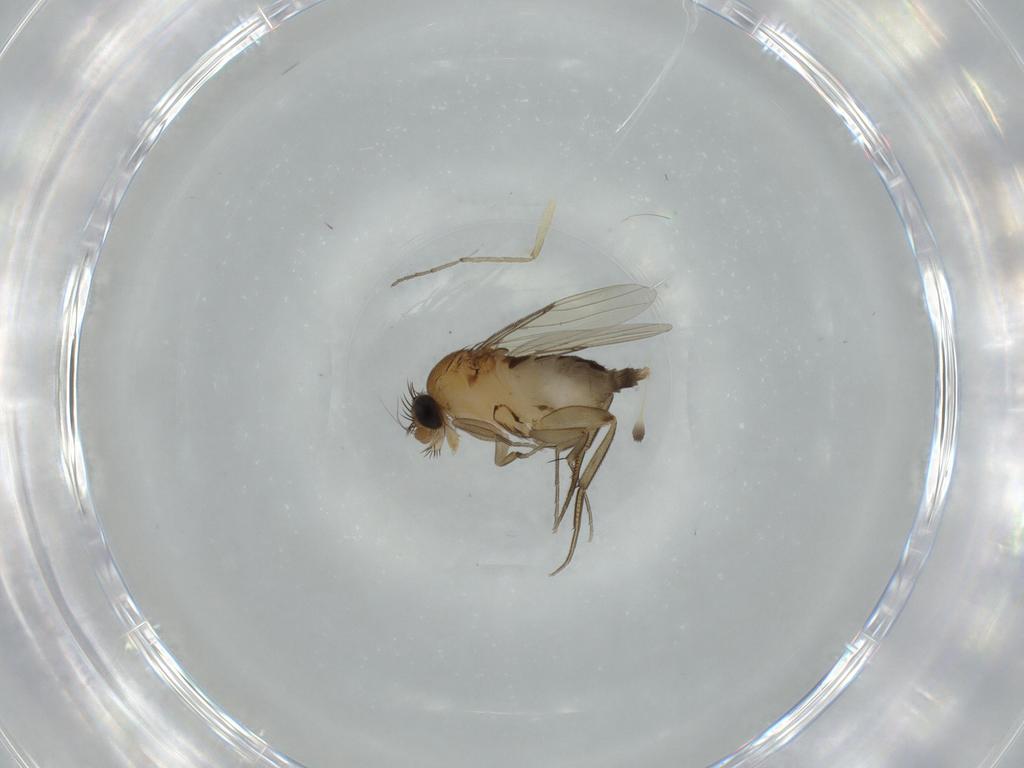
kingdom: Animalia
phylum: Arthropoda
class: Insecta
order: Diptera
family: Phoridae
